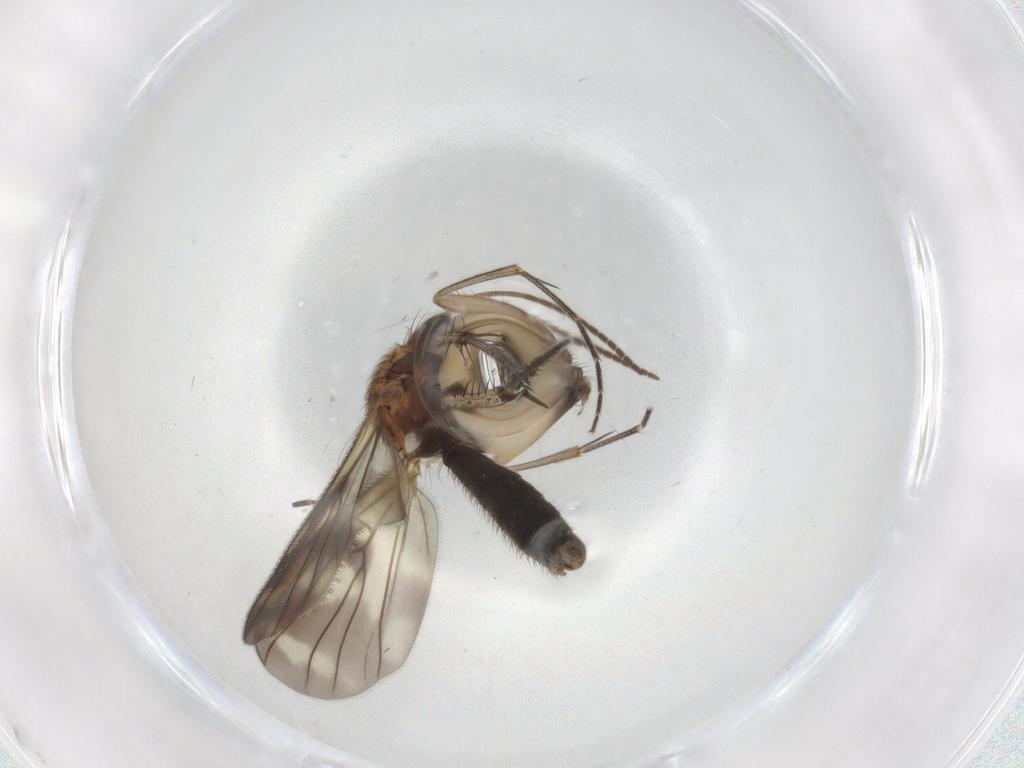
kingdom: Animalia
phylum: Arthropoda
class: Insecta
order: Diptera
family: Mycetophilidae
